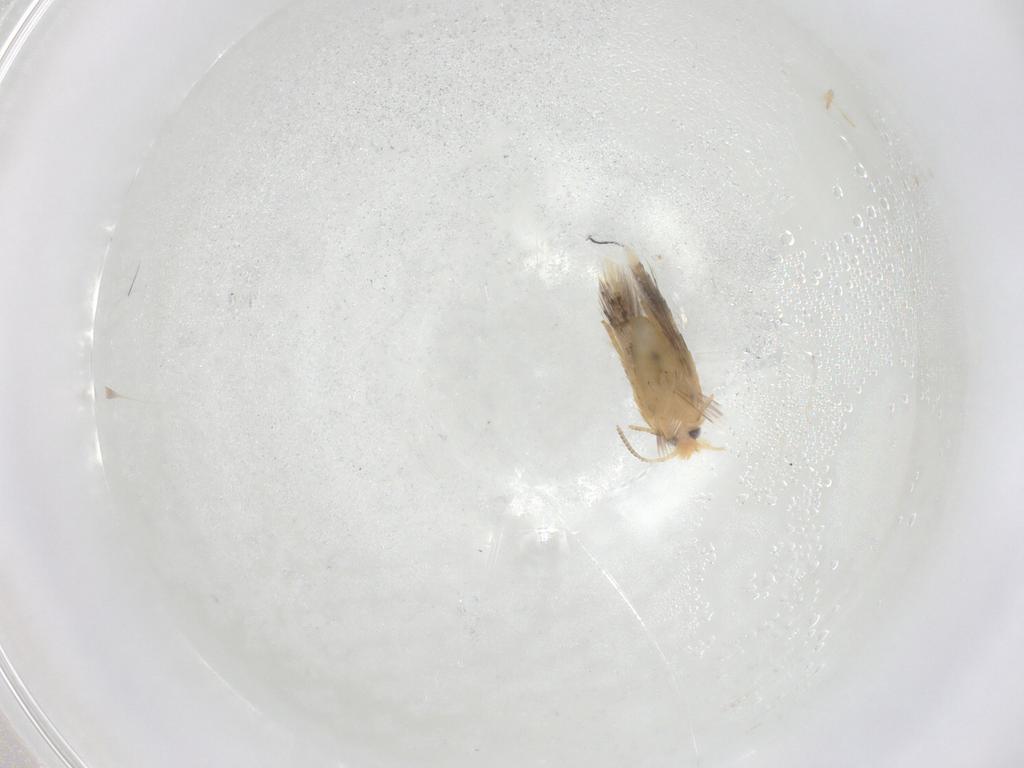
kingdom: Animalia
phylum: Arthropoda
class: Insecta
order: Lepidoptera
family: Nepticulidae
